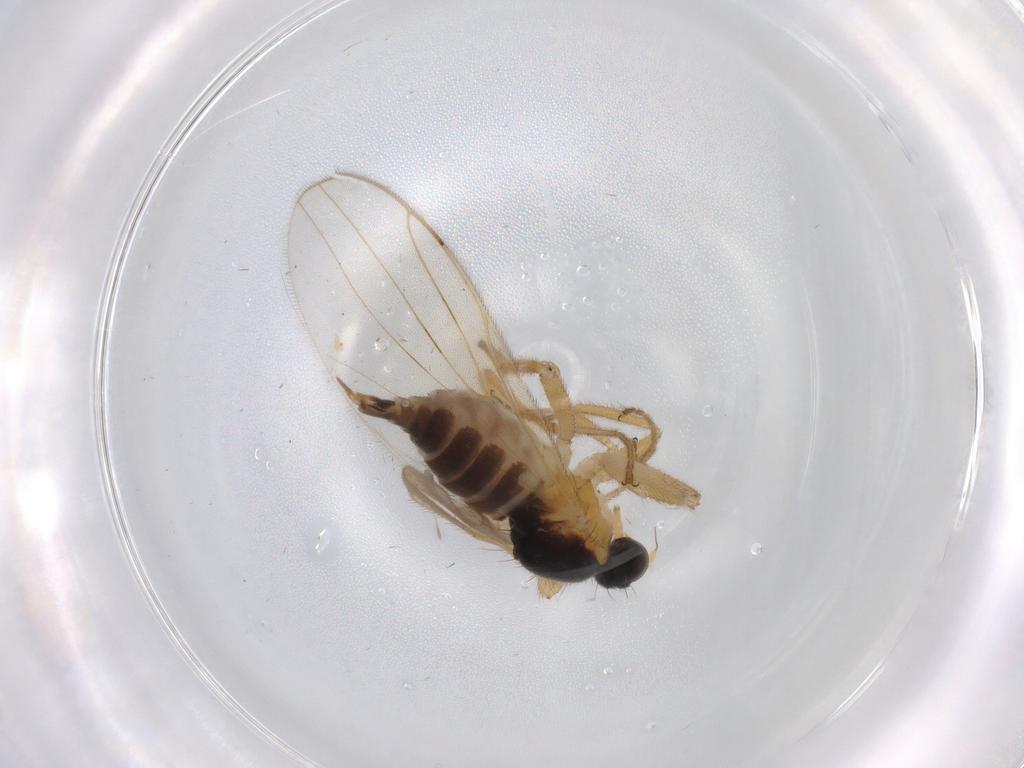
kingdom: Animalia
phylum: Arthropoda
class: Insecta
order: Diptera
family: Hybotidae
